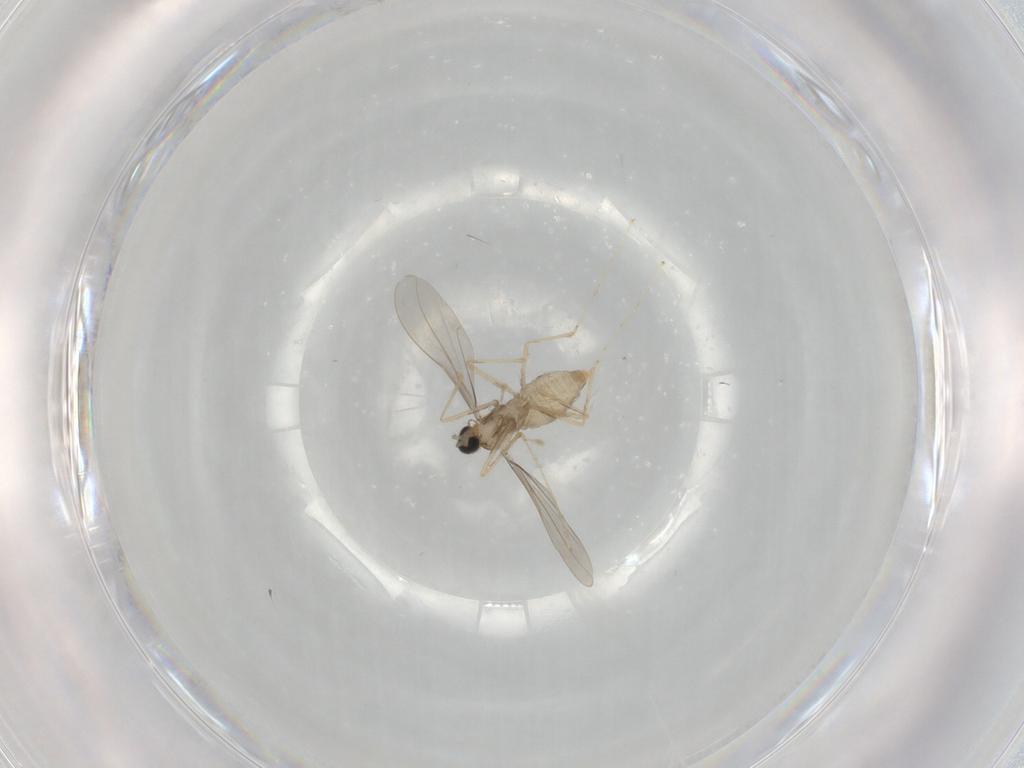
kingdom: Animalia
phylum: Arthropoda
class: Insecta
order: Diptera
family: Cecidomyiidae
